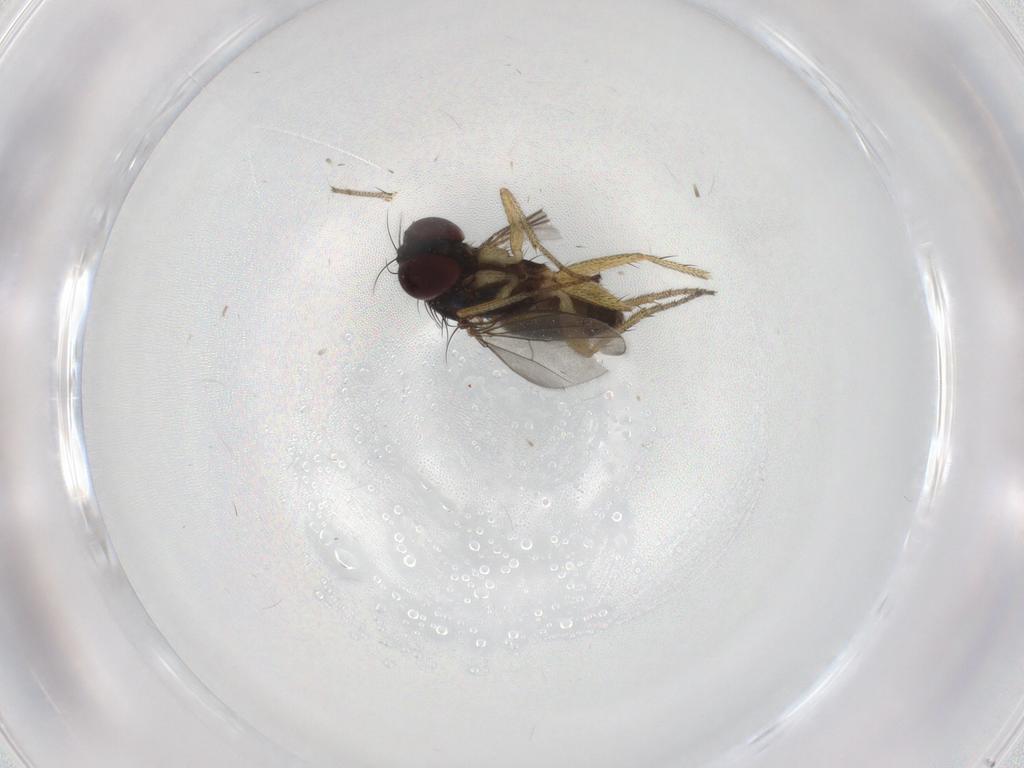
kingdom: Animalia
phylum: Arthropoda
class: Insecta
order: Diptera
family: Dolichopodidae
